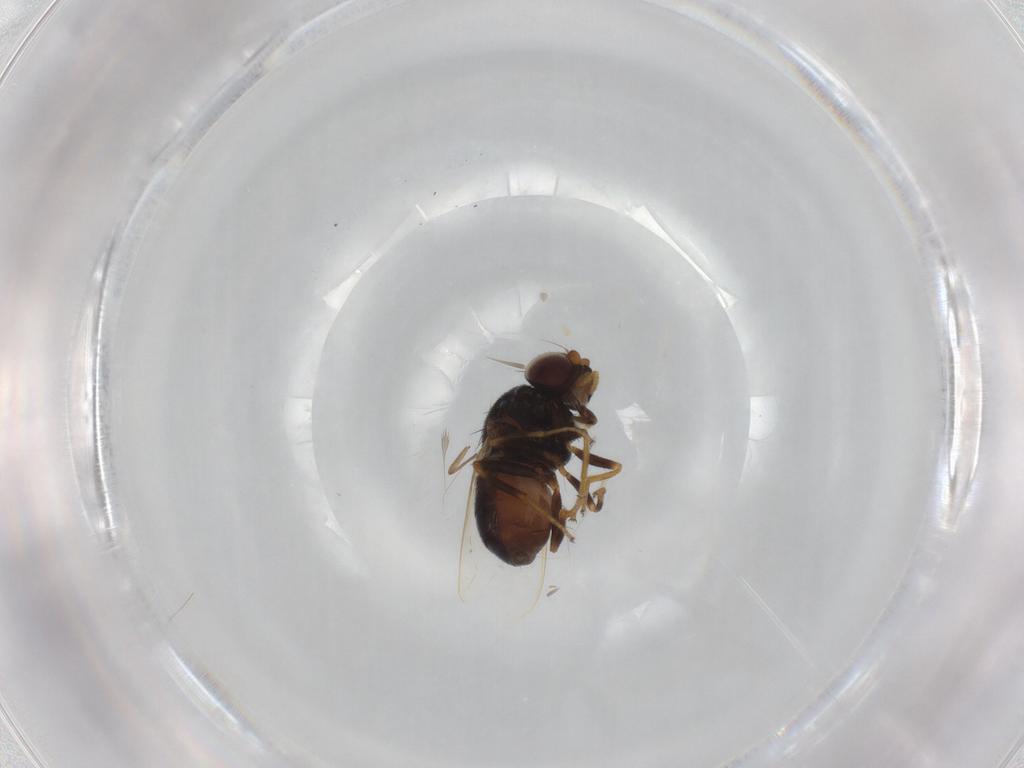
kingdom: Animalia
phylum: Arthropoda
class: Insecta
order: Diptera
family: Chloropidae
